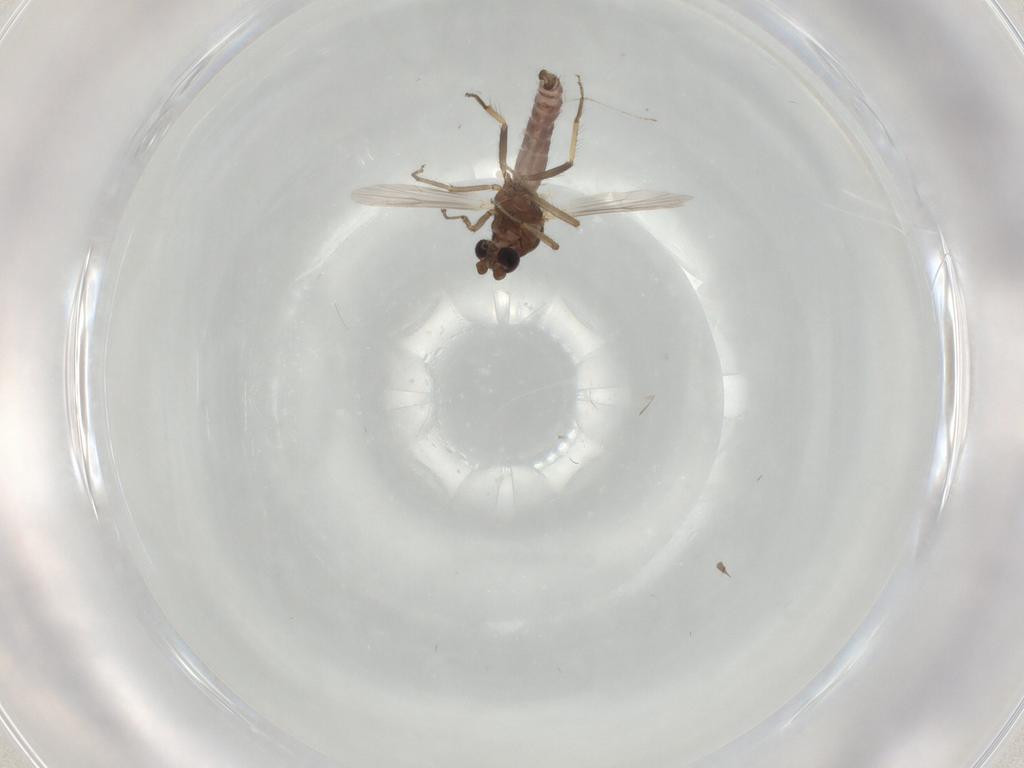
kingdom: Animalia
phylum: Arthropoda
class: Insecta
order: Diptera
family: Ceratopogonidae
